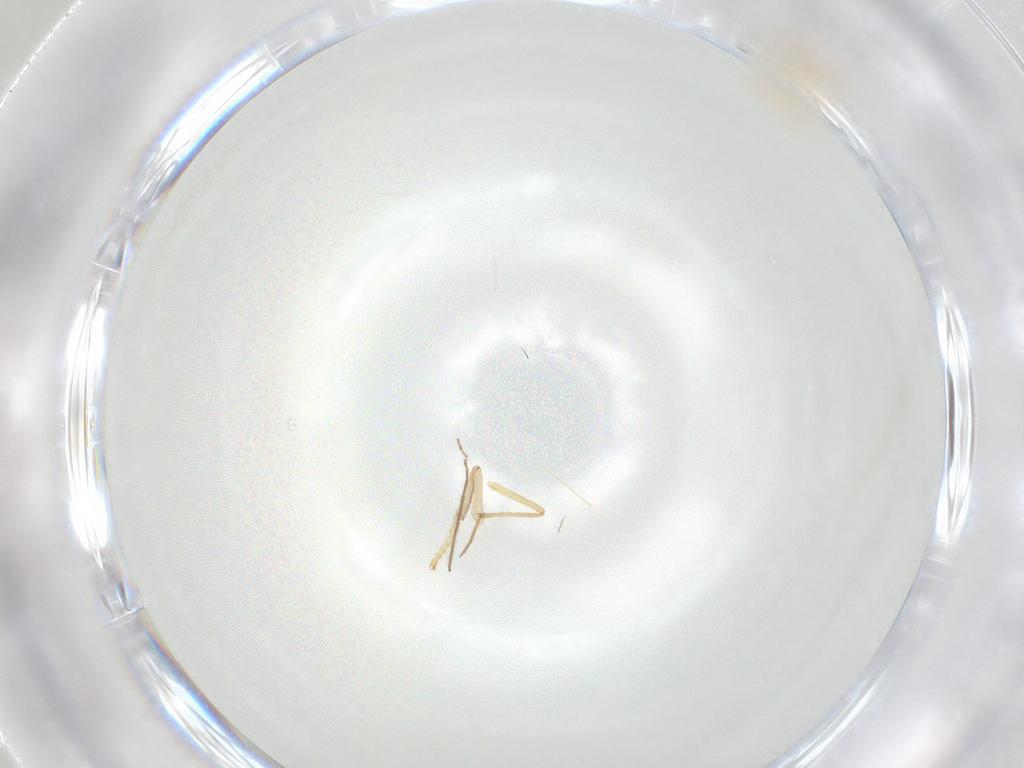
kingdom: Animalia
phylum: Arthropoda
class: Insecta
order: Diptera
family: Cecidomyiidae
